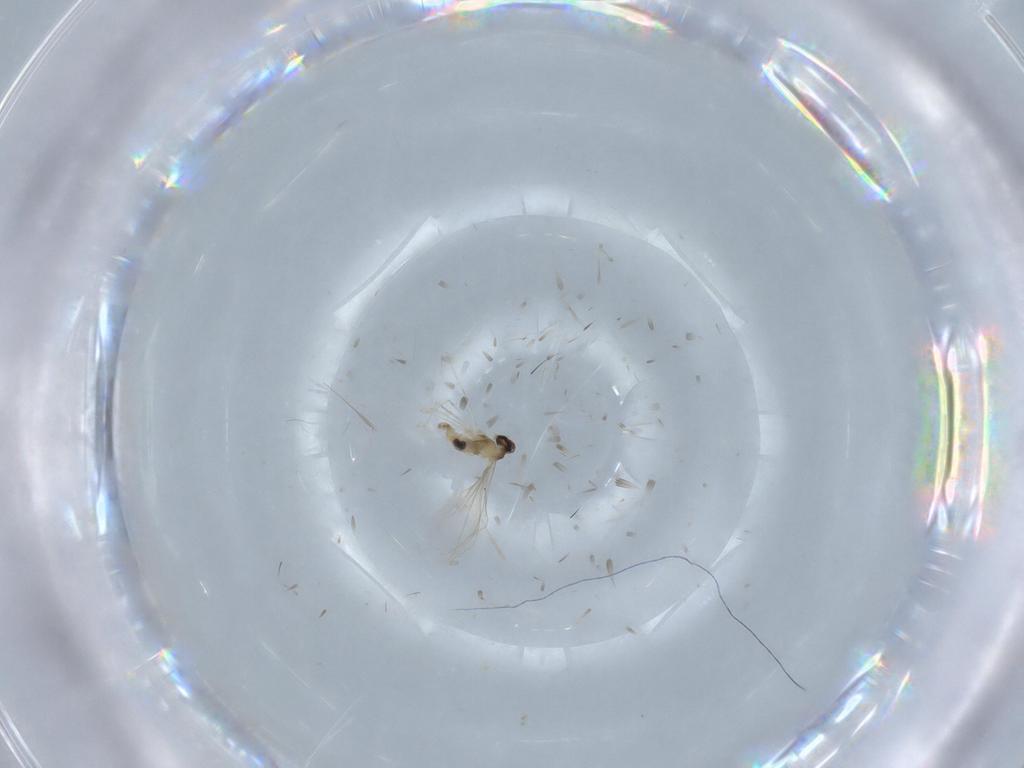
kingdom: Animalia
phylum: Arthropoda
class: Insecta
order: Diptera
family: Cecidomyiidae
